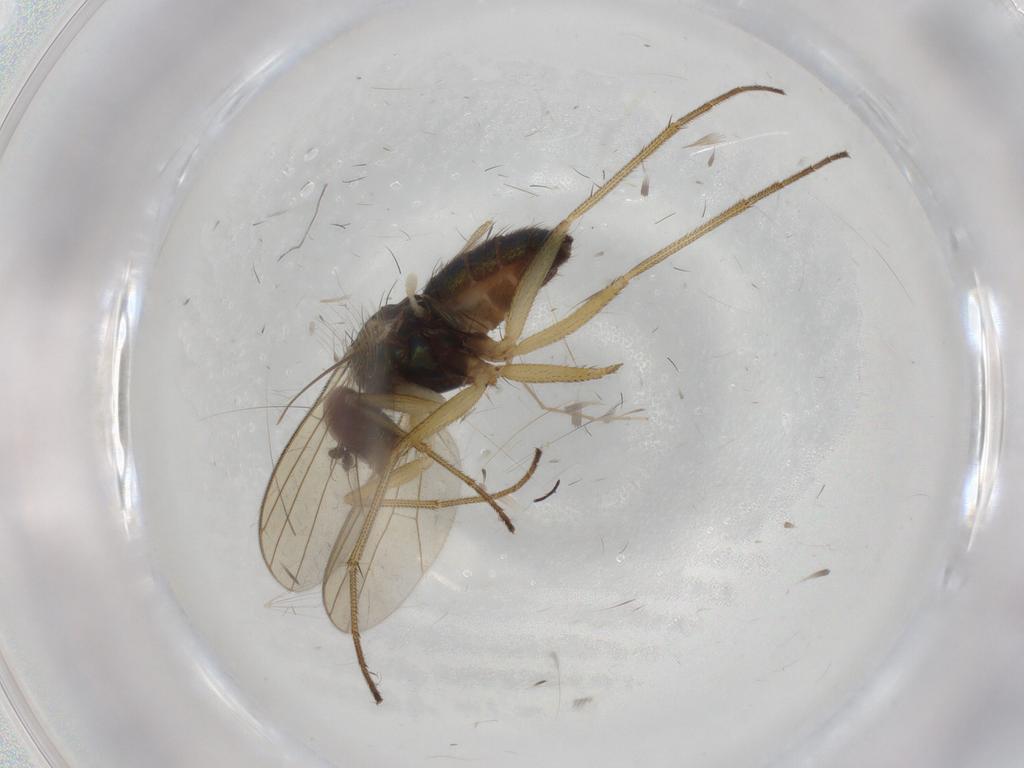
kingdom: Animalia
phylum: Arthropoda
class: Insecta
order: Diptera
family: Dolichopodidae
